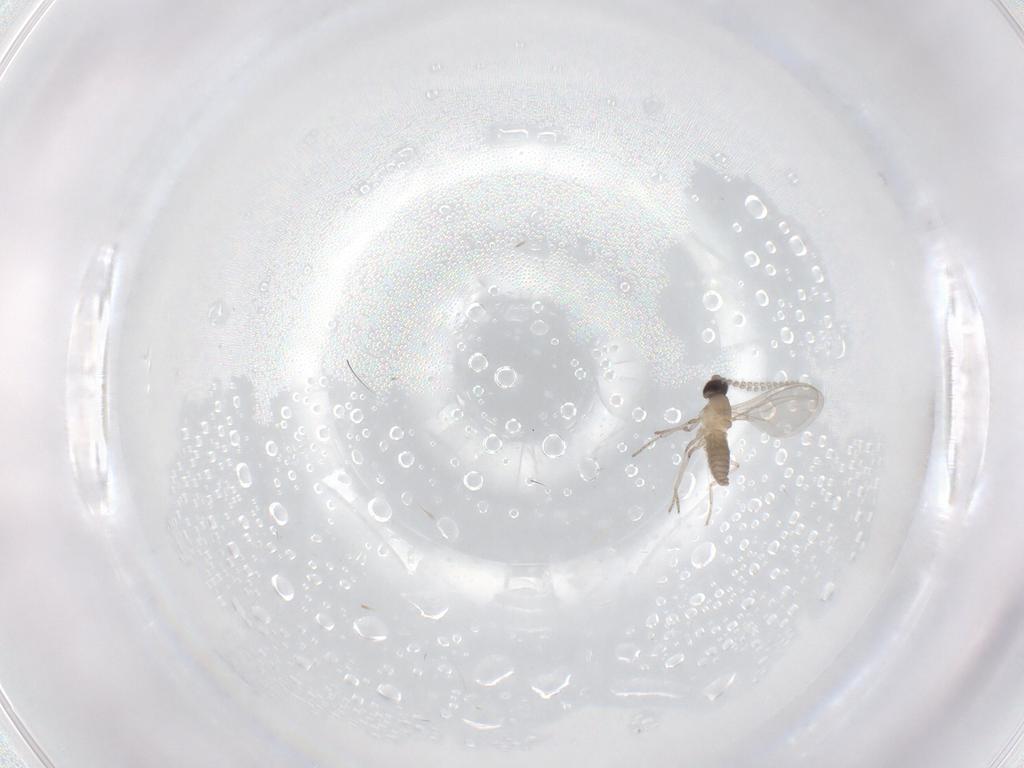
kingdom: Animalia
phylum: Arthropoda
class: Insecta
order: Diptera
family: Cecidomyiidae
